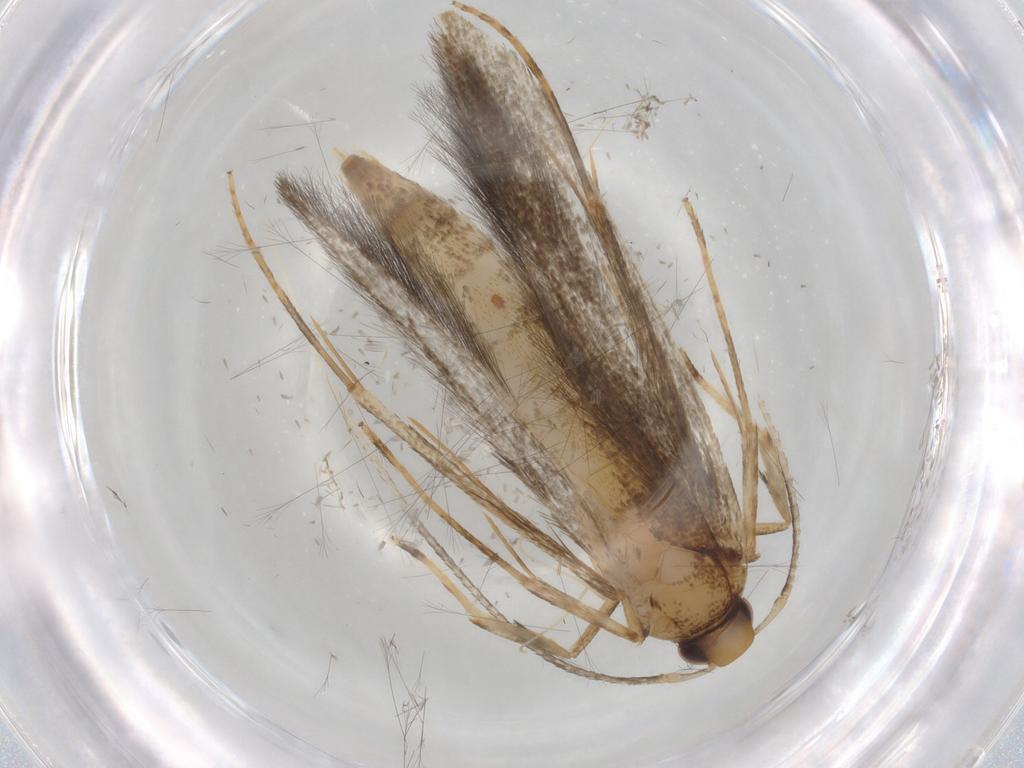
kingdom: Animalia
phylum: Arthropoda
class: Insecta
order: Lepidoptera
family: Pterolonchidae
